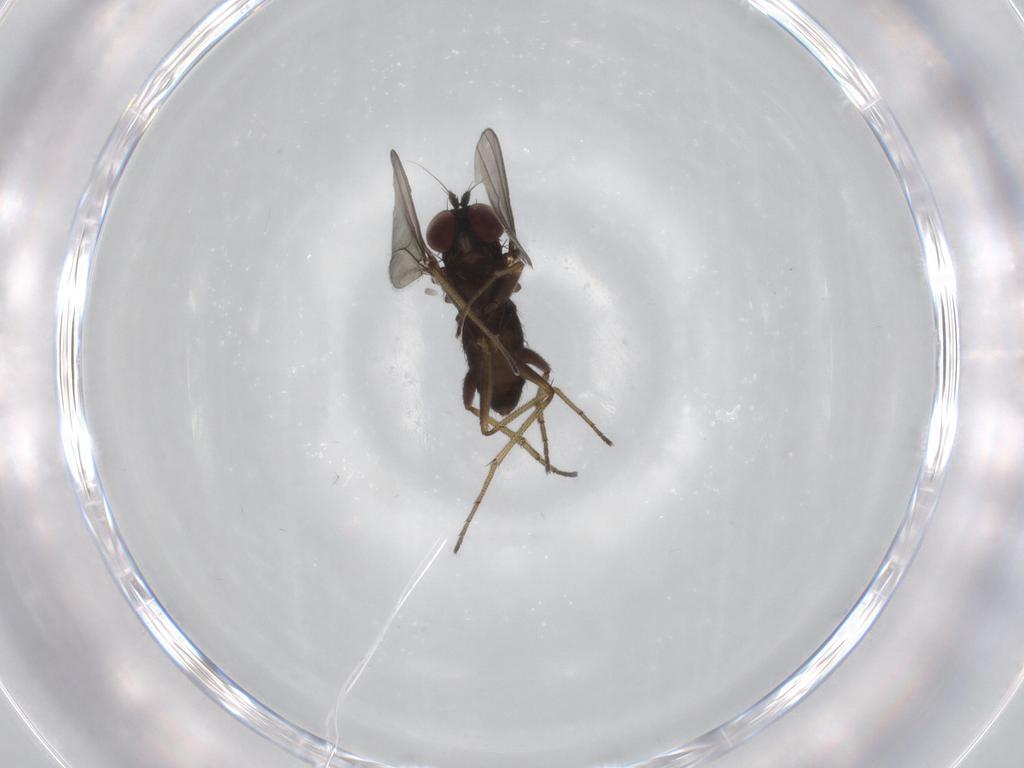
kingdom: Animalia
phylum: Arthropoda
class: Insecta
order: Diptera
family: Dolichopodidae
